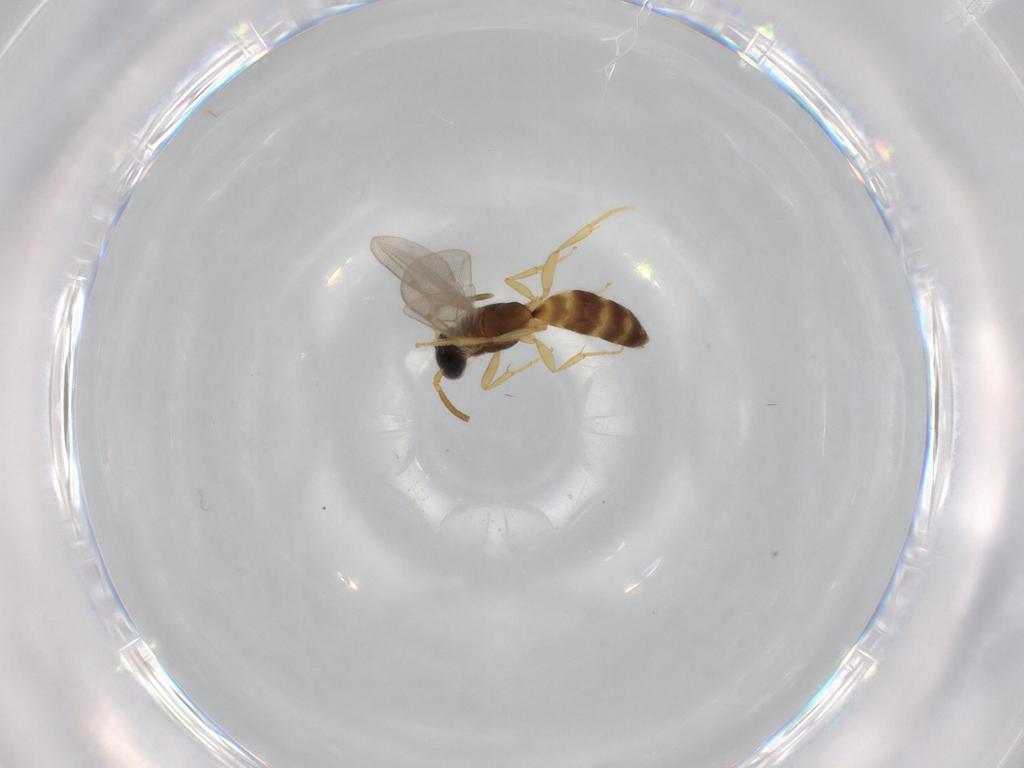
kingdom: Animalia
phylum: Arthropoda
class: Insecta
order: Hymenoptera
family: Bethylidae
